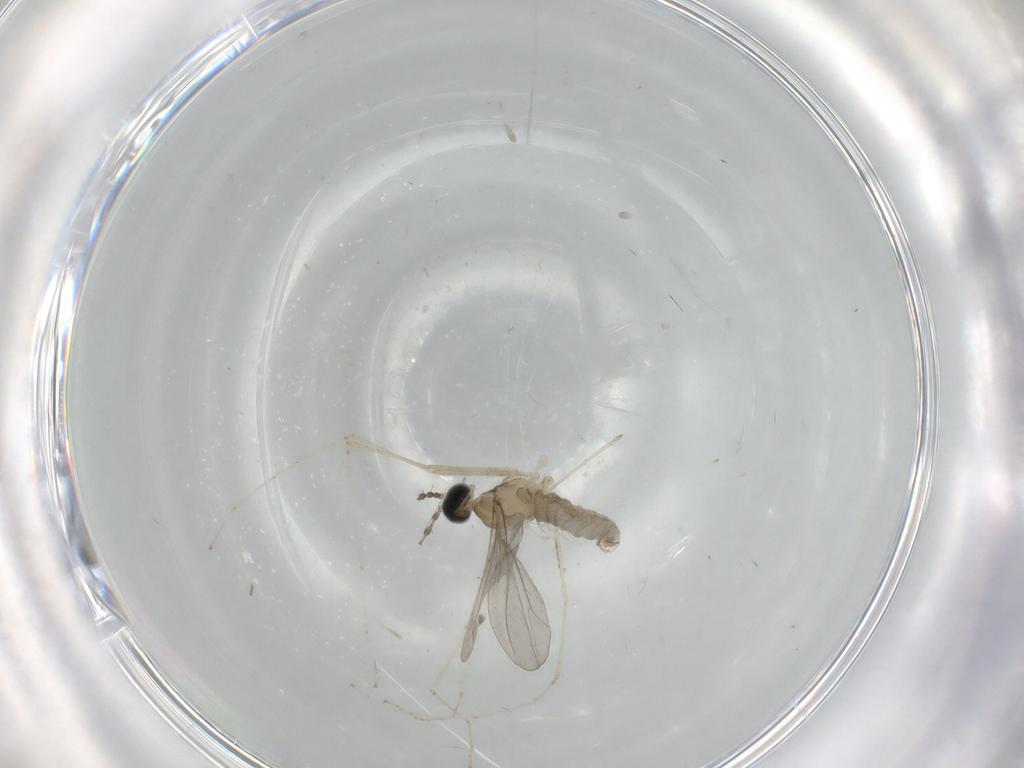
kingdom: Animalia
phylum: Arthropoda
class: Insecta
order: Diptera
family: Cecidomyiidae
